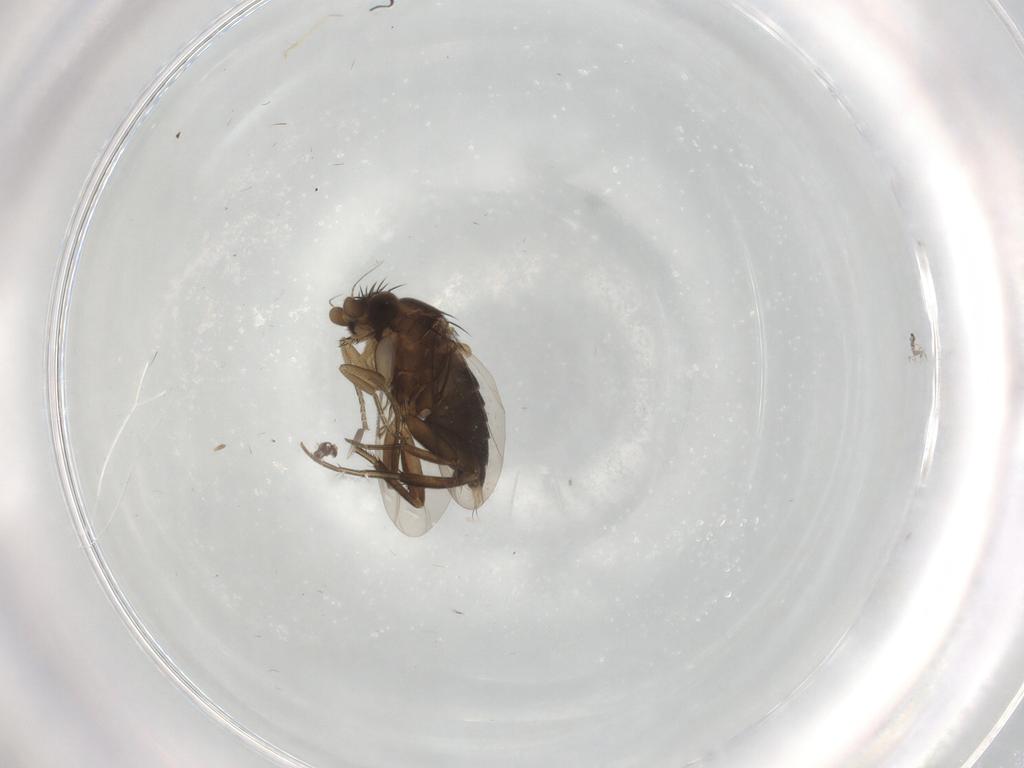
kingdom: Animalia
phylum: Arthropoda
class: Insecta
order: Diptera
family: Phoridae
